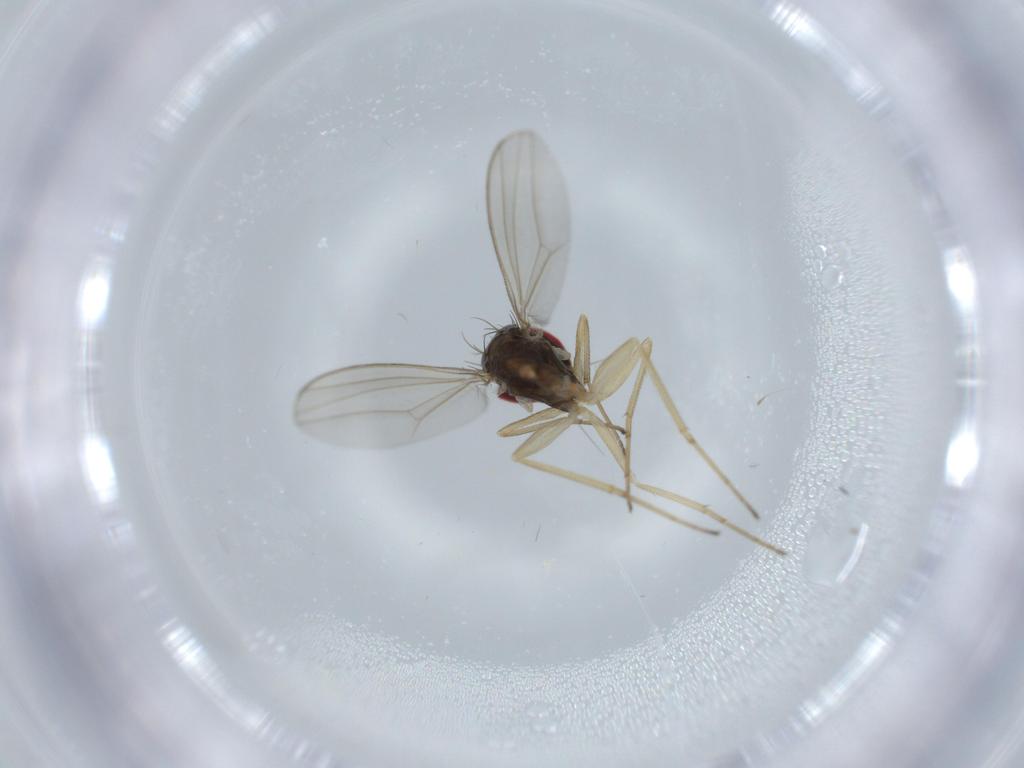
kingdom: Animalia
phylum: Arthropoda
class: Insecta
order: Diptera
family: Dolichopodidae
